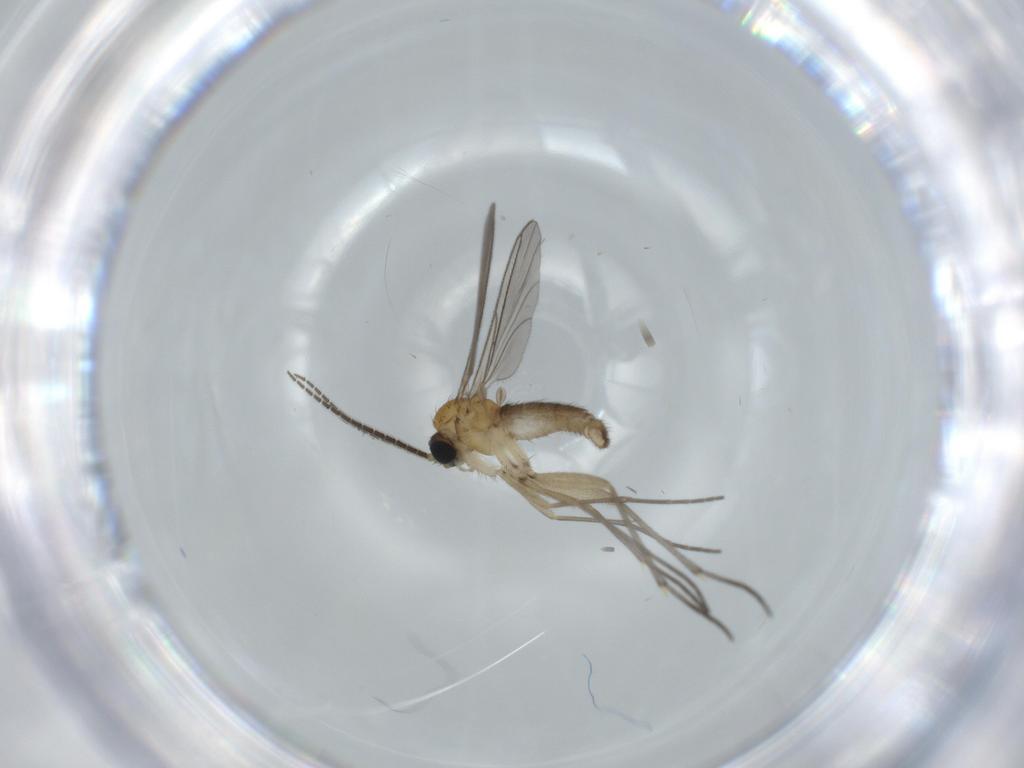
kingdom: Animalia
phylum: Arthropoda
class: Insecta
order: Diptera
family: Sciaridae
